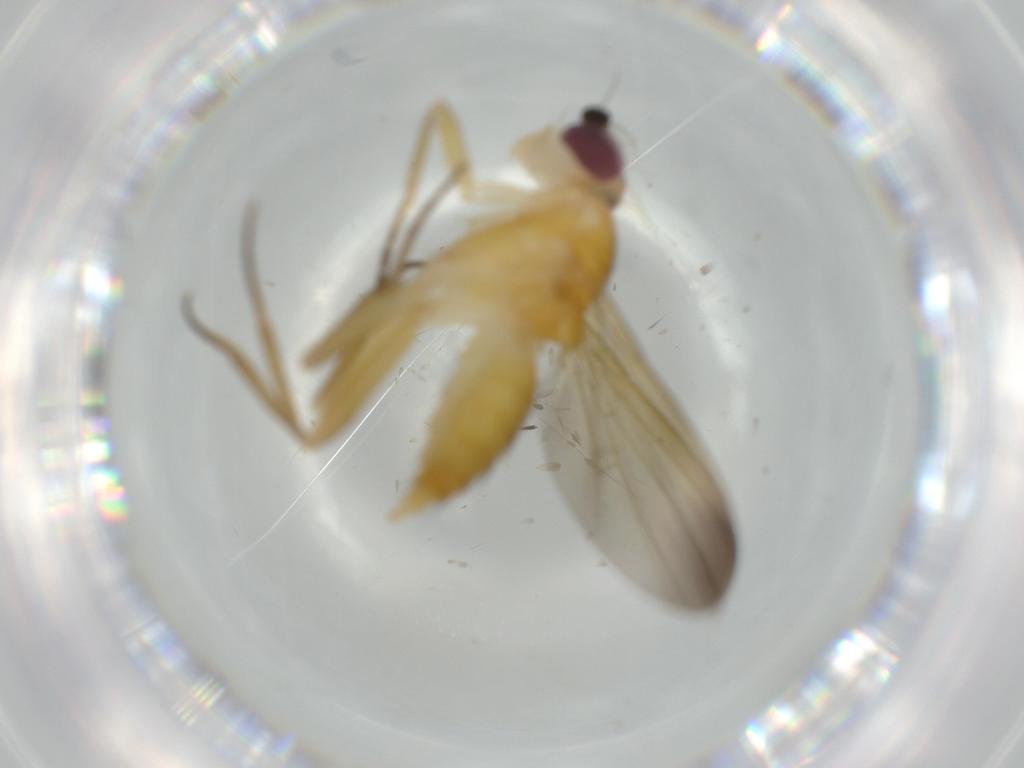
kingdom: Animalia
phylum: Arthropoda
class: Insecta
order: Diptera
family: Clusiidae
